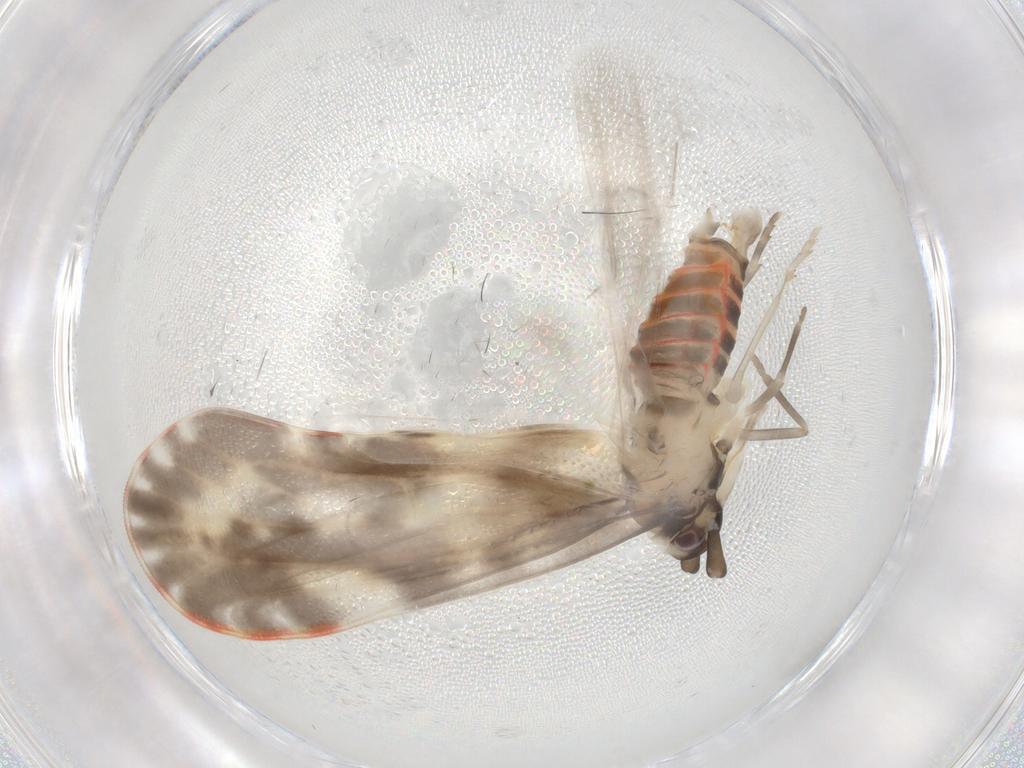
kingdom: Animalia
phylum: Arthropoda
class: Insecta
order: Hemiptera
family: Derbidae
